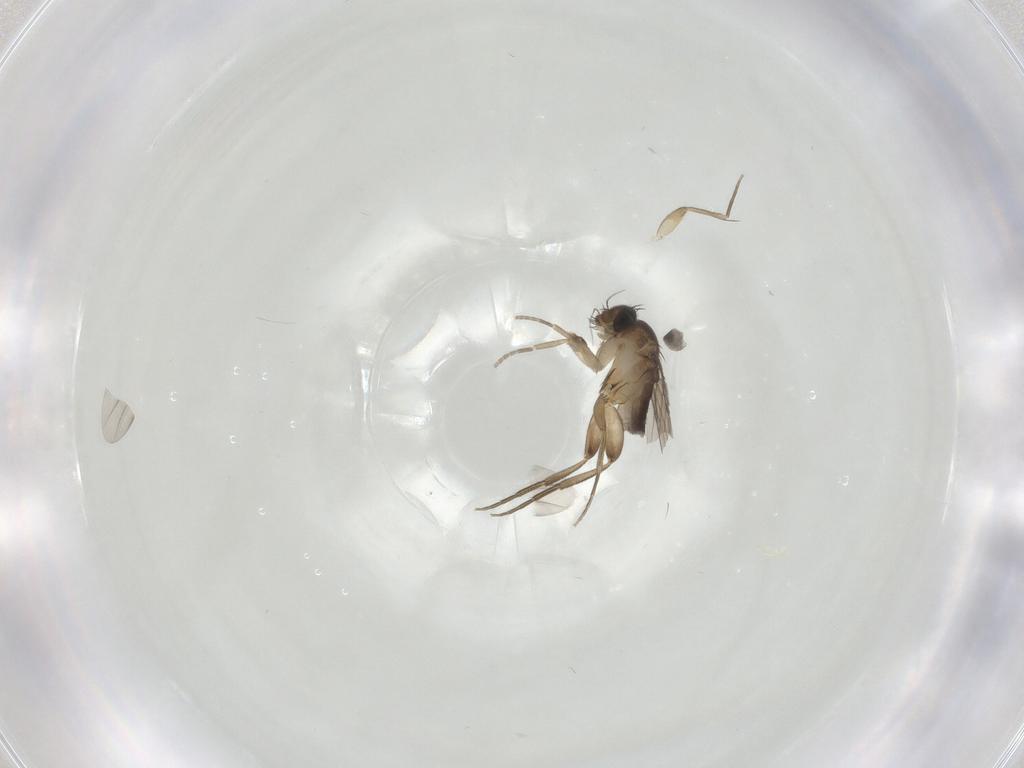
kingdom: Animalia
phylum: Arthropoda
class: Insecta
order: Diptera
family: Phoridae
